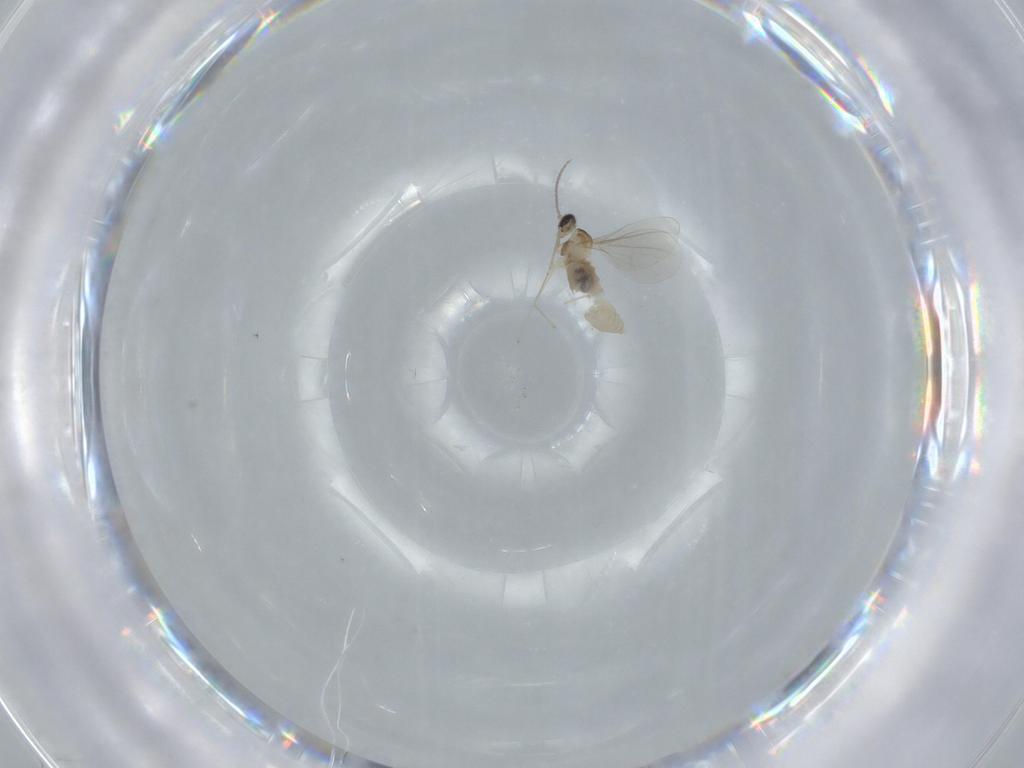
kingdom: Animalia
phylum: Arthropoda
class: Insecta
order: Diptera
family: Cecidomyiidae
